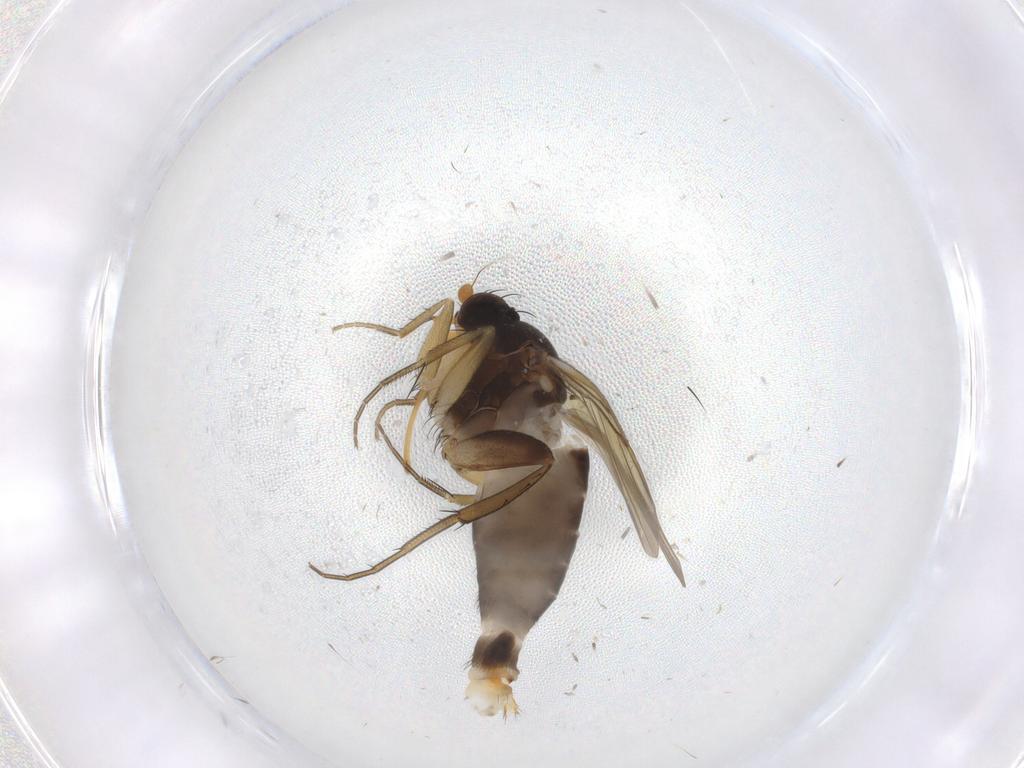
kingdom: Animalia
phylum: Arthropoda
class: Insecta
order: Diptera
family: Phoridae
